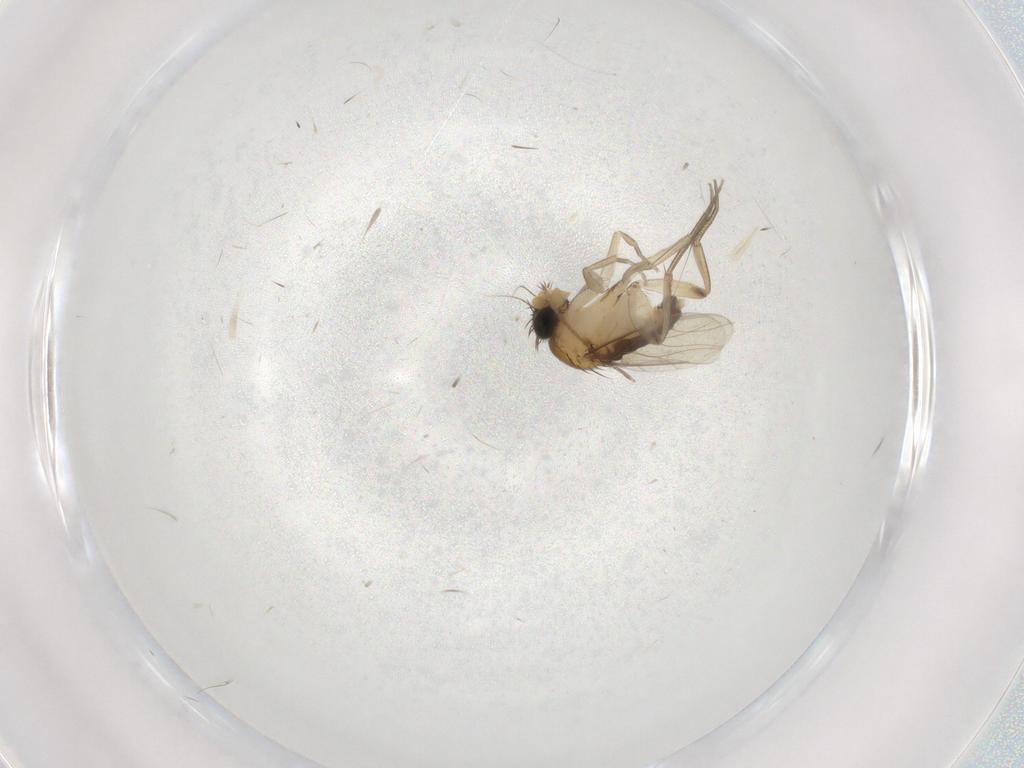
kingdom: Animalia
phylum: Arthropoda
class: Insecta
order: Diptera
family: Phoridae
